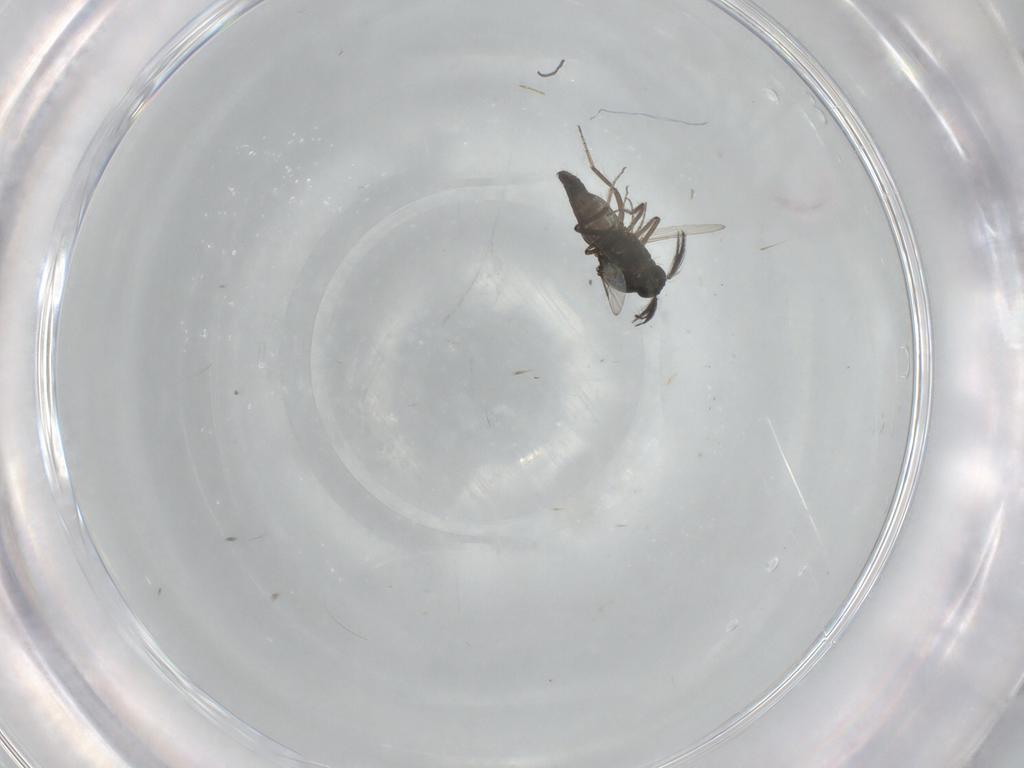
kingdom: Animalia
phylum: Arthropoda
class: Insecta
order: Diptera
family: Ceratopogonidae
